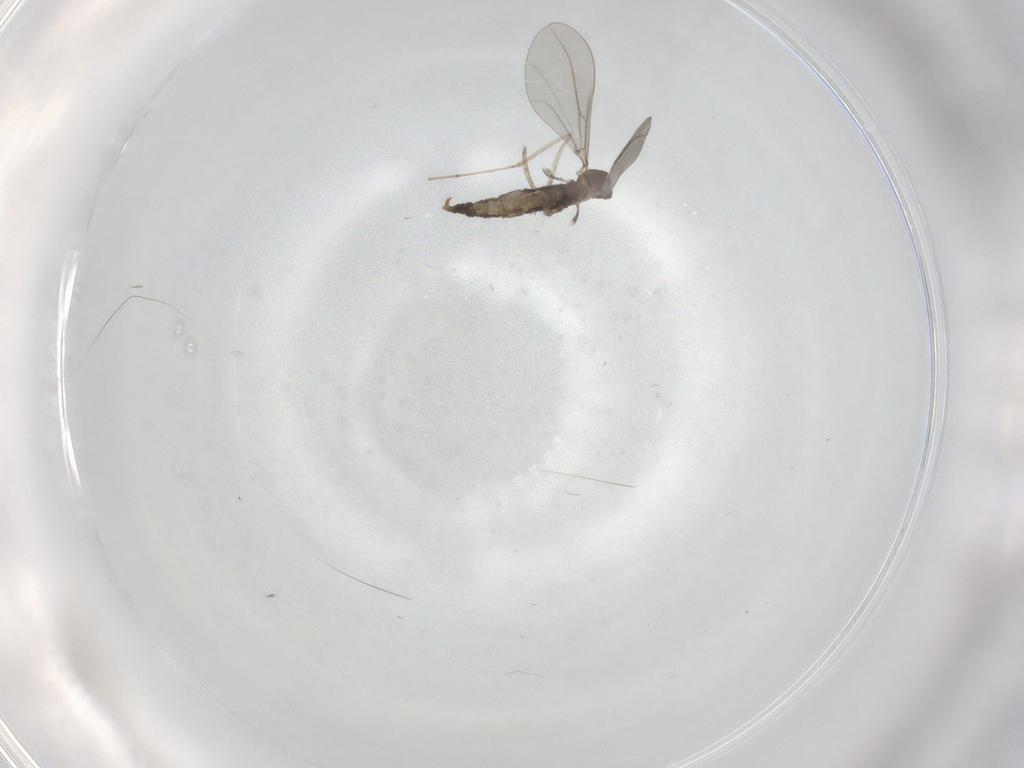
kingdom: Animalia
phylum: Arthropoda
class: Insecta
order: Diptera
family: Cecidomyiidae
